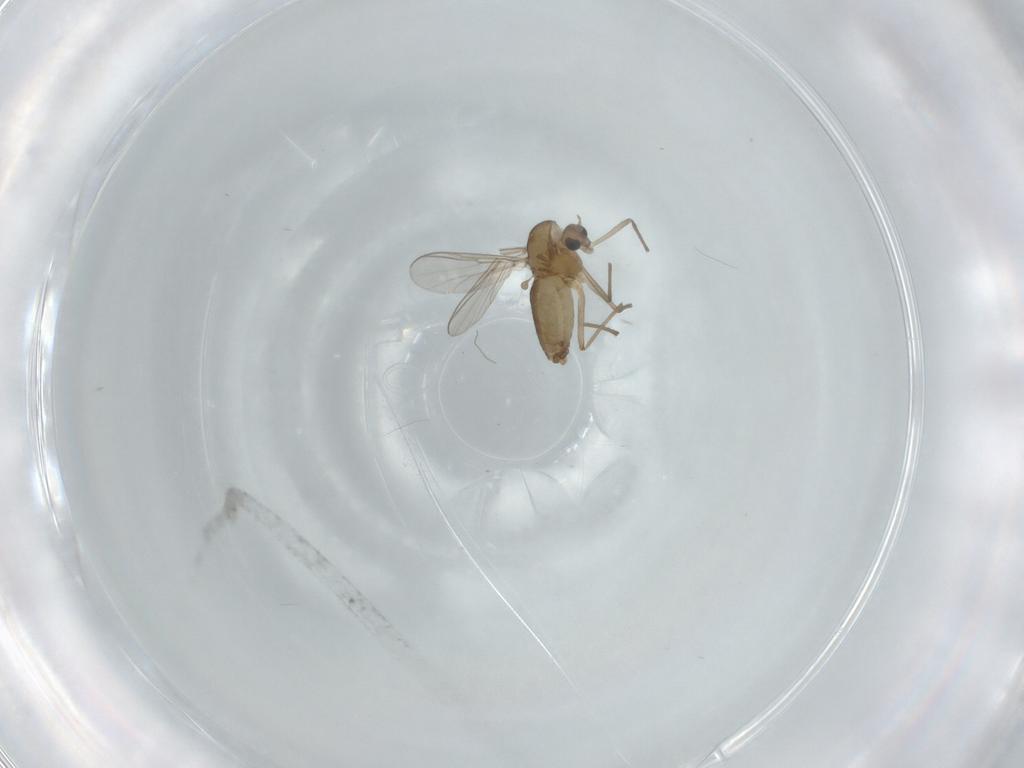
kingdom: Animalia
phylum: Arthropoda
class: Insecta
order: Diptera
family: Chironomidae
